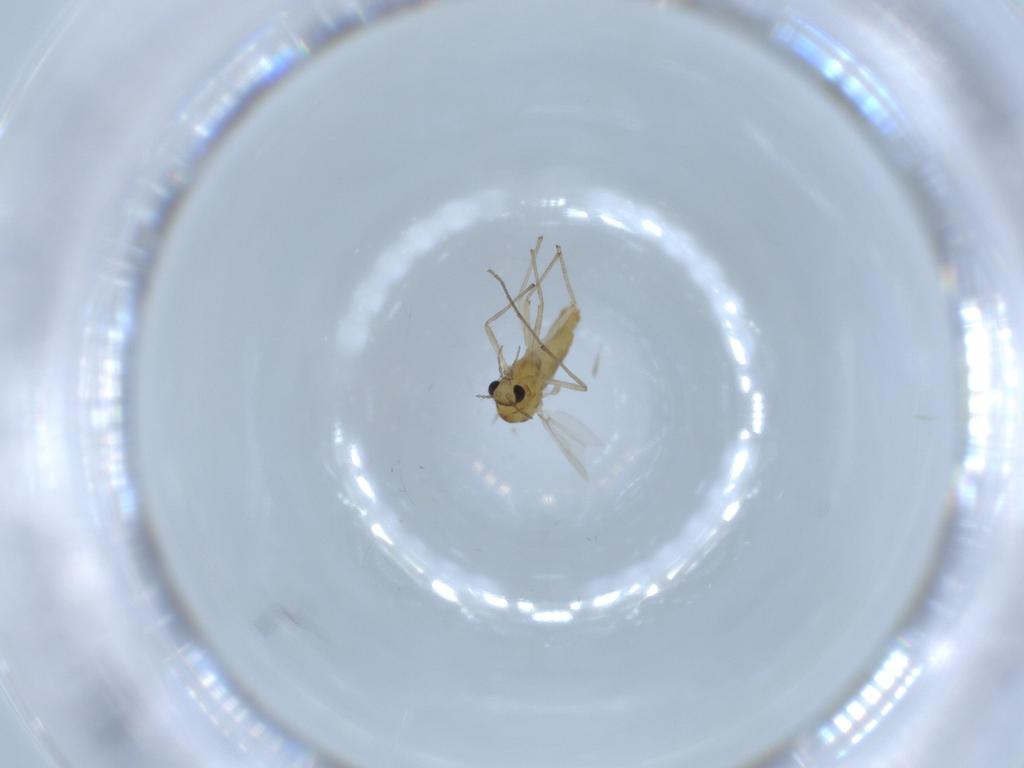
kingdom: Animalia
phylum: Arthropoda
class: Insecta
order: Diptera
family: Chironomidae
